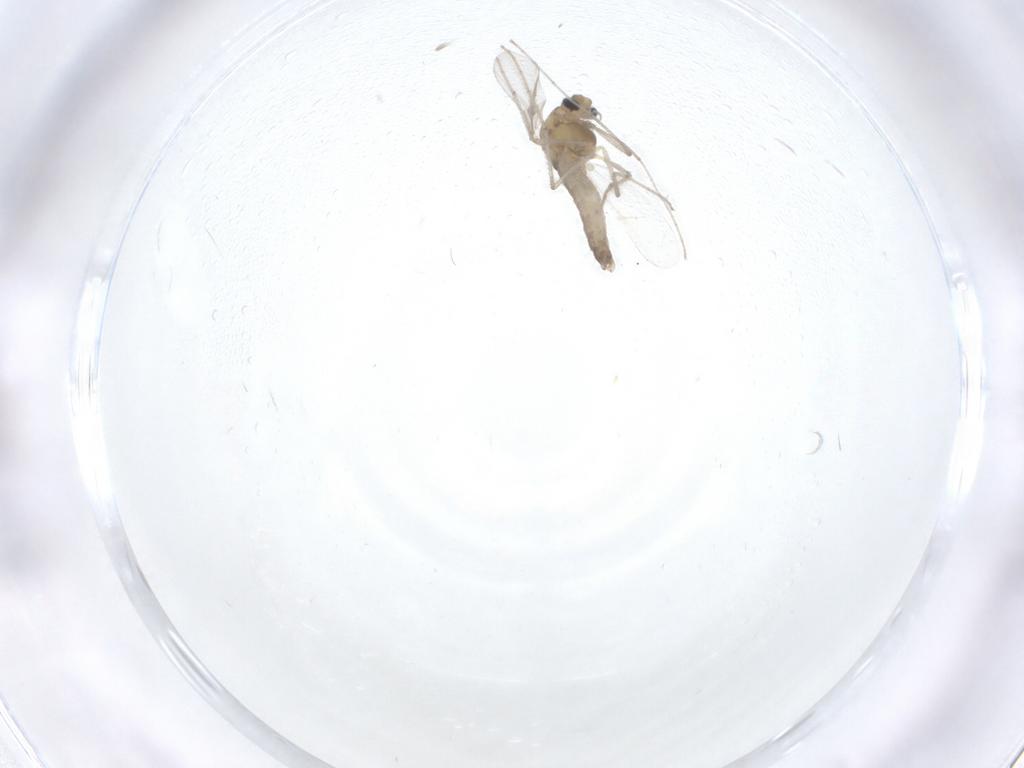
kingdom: Animalia
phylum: Arthropoda
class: Insecta
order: Diptera
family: Chironomidae
